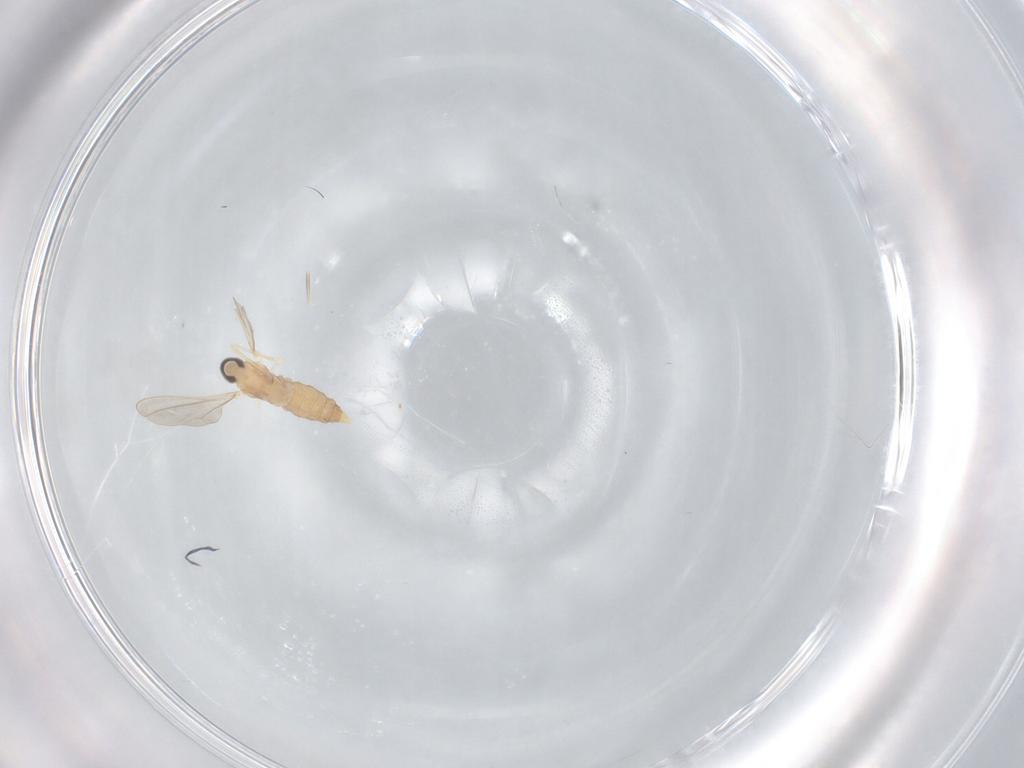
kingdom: Animalia
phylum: Arthropoda
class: Insecta
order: Diptera
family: Cecidomyiidae
